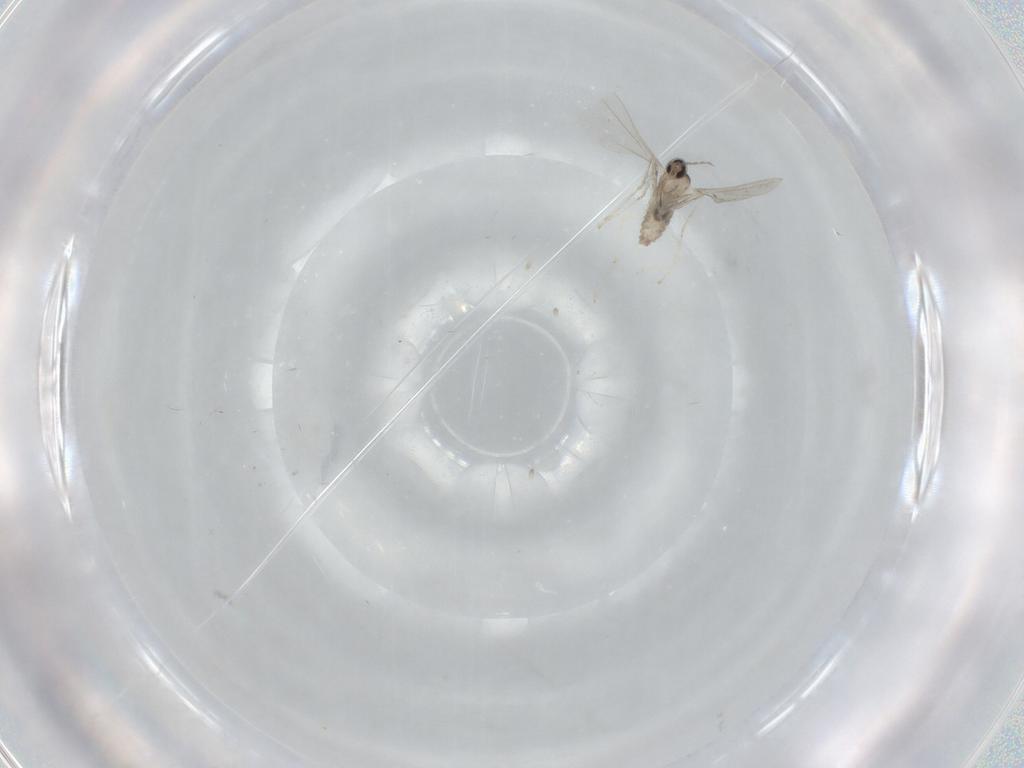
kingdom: Animalia
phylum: Arthropoda
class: Insecta
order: Diptera
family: Cecidomyiidae
